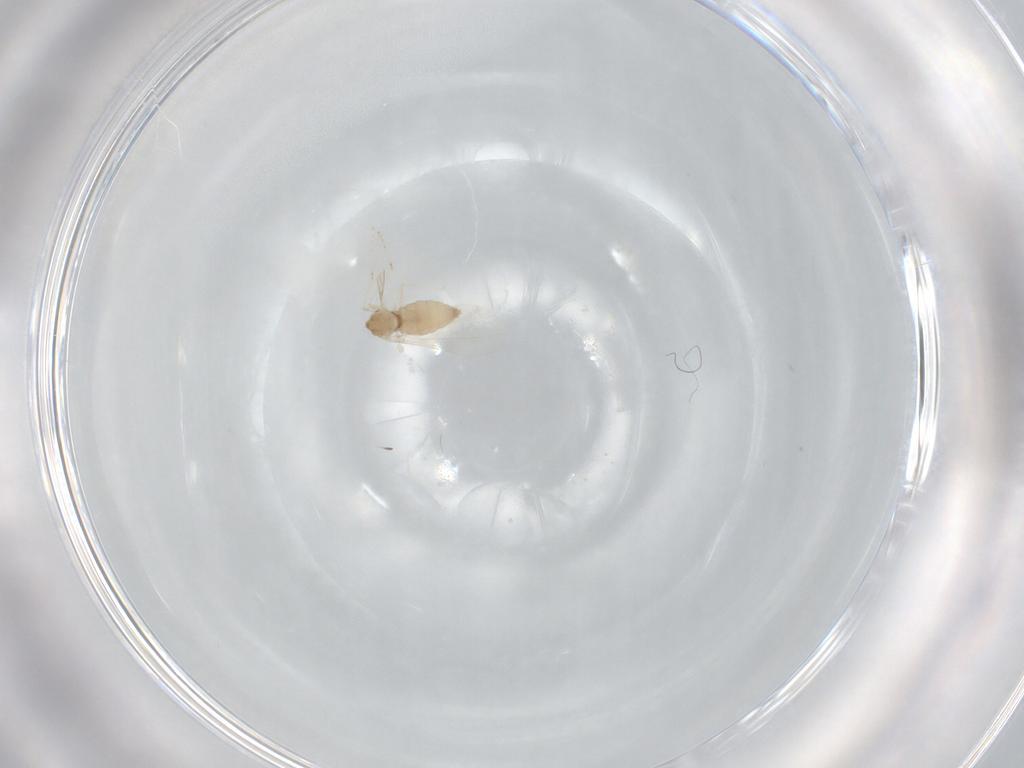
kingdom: Animalia
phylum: Arthropoda
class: Insecta
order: Diptera
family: Cecidomyiidae
